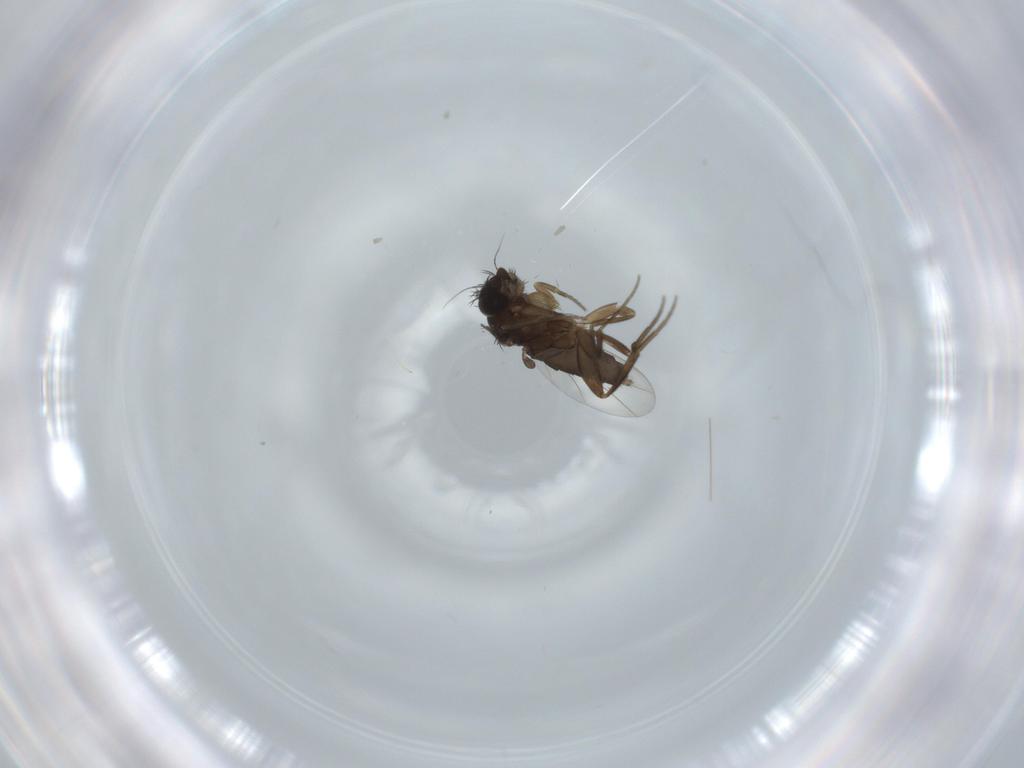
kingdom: Animalia
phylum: Arthropoda
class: Insecta
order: Diptera
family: Phoridae
